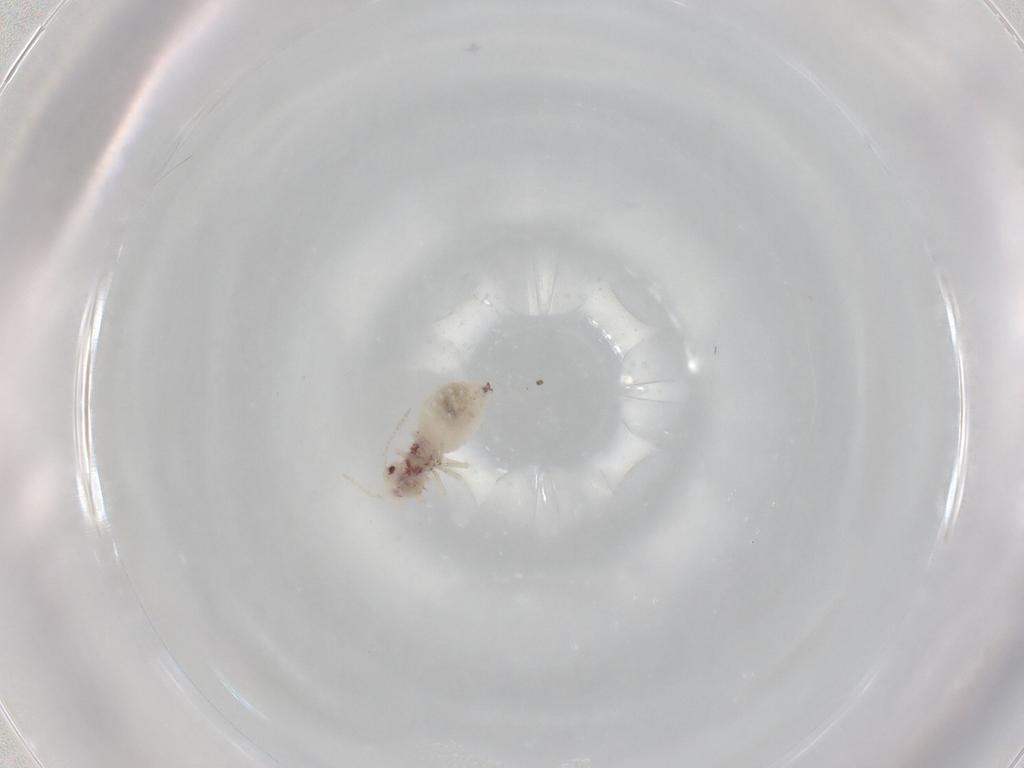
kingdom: Animalia
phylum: Arthropoda
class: Insecta
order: Psocodea
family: Amphipsocidae
